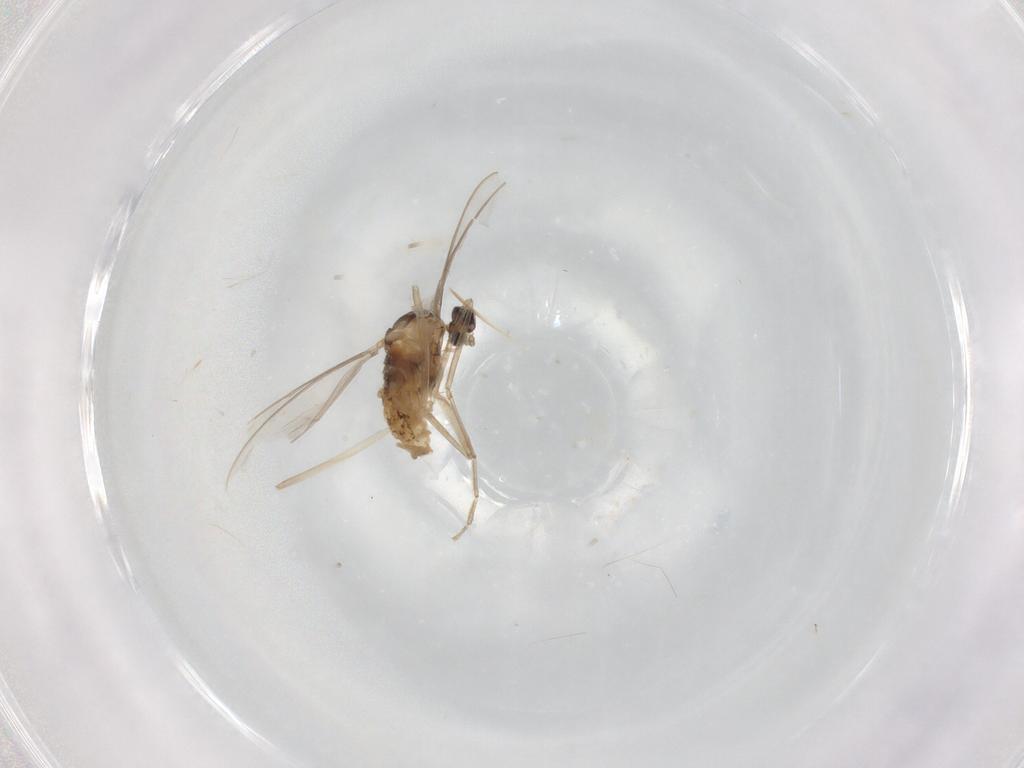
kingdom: Animalia
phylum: Arthropoda
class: Insecta
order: Diptera
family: Cecidomyiidae
